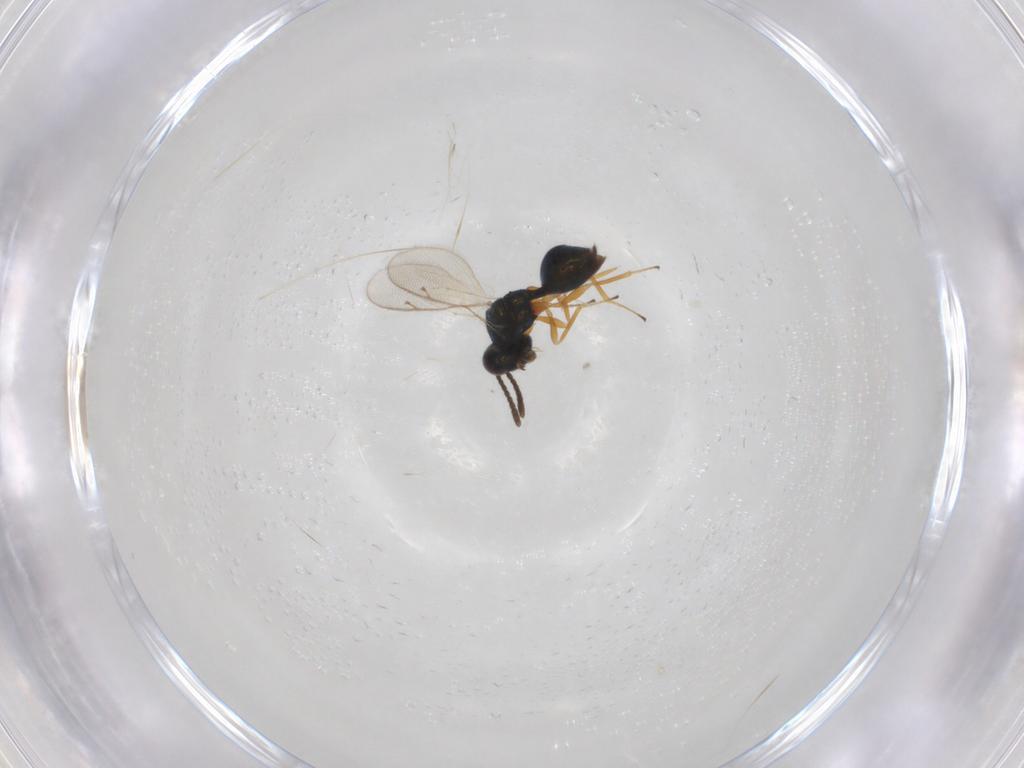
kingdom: Animalia
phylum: Arthropoda
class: Insecta
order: Hymenoptera
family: Pteromalidae
